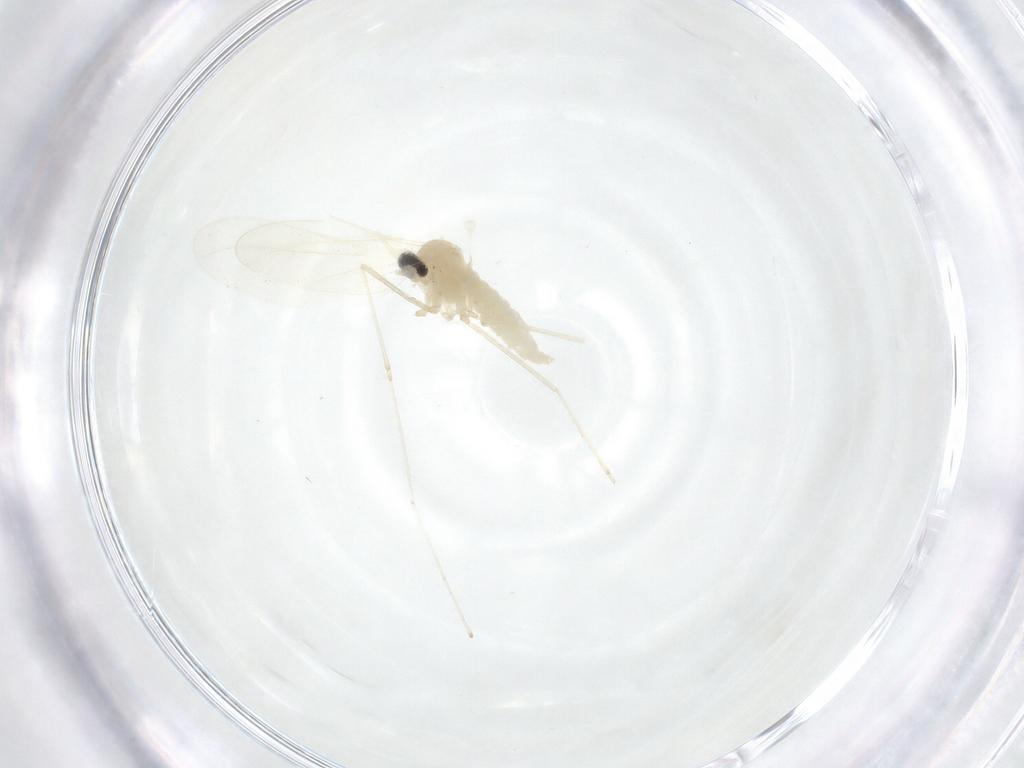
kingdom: Animalia
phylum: Arthropoda
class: Insecta
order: Diptera
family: Cecidomyiidae
